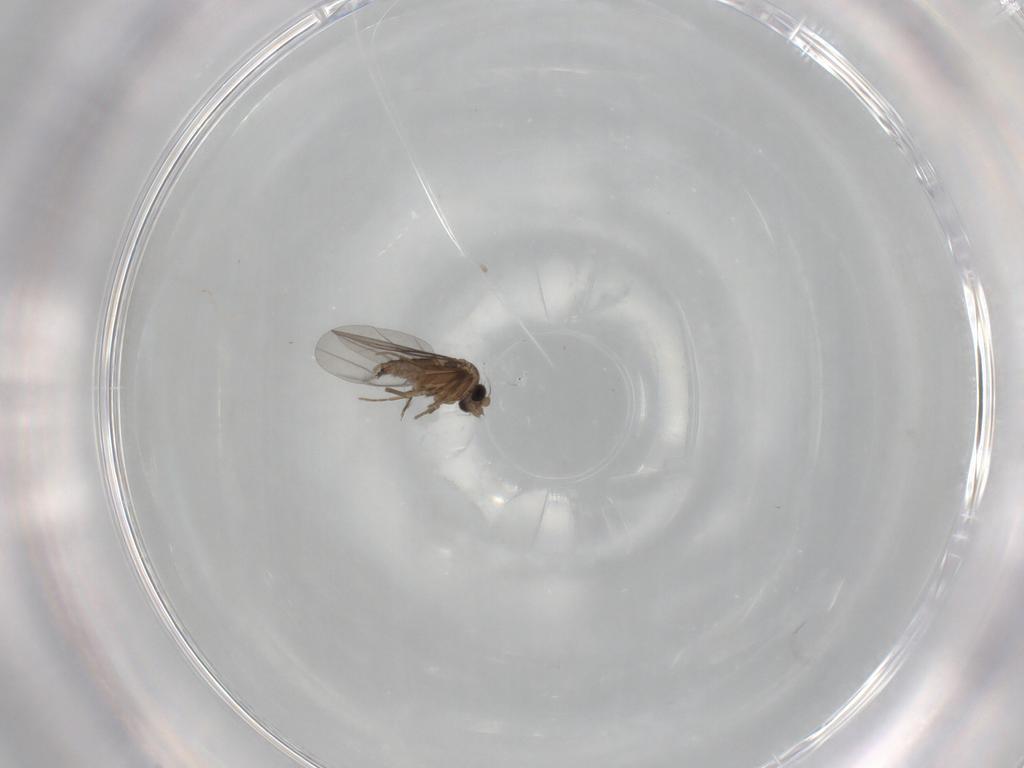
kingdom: Animalia
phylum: Arthropoda
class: Insecta
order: Diptera
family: Cecidomyiidae
